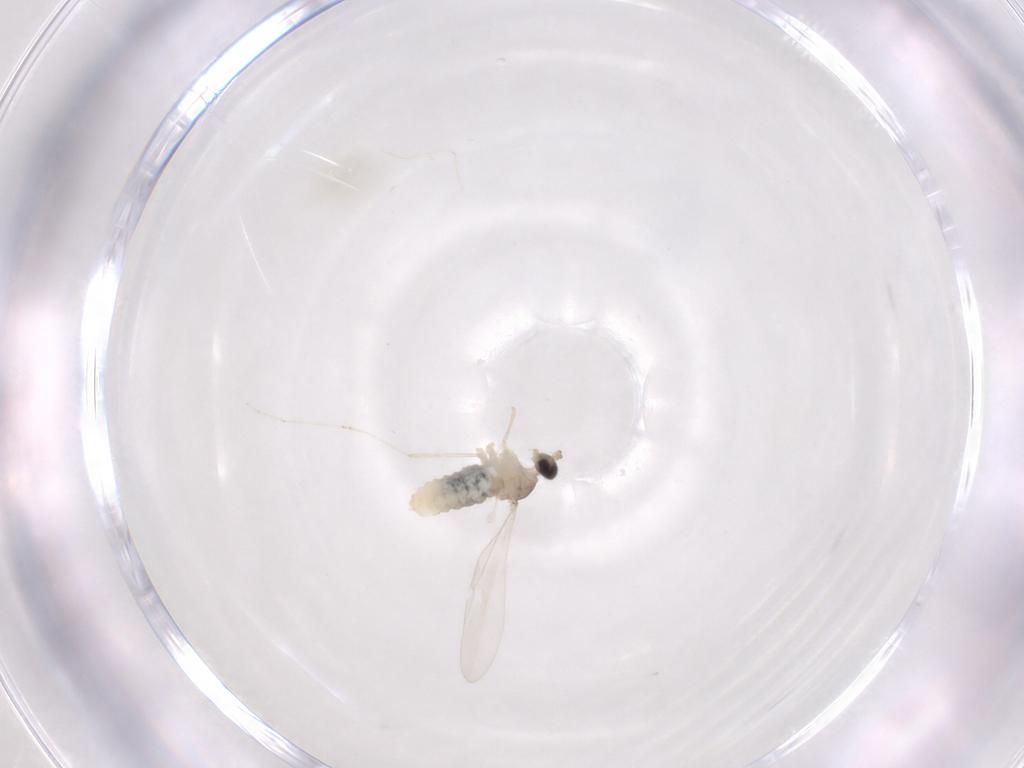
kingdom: Animalia
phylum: Arthropoda
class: Insecta
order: Diptera
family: Cecidomyiidae
